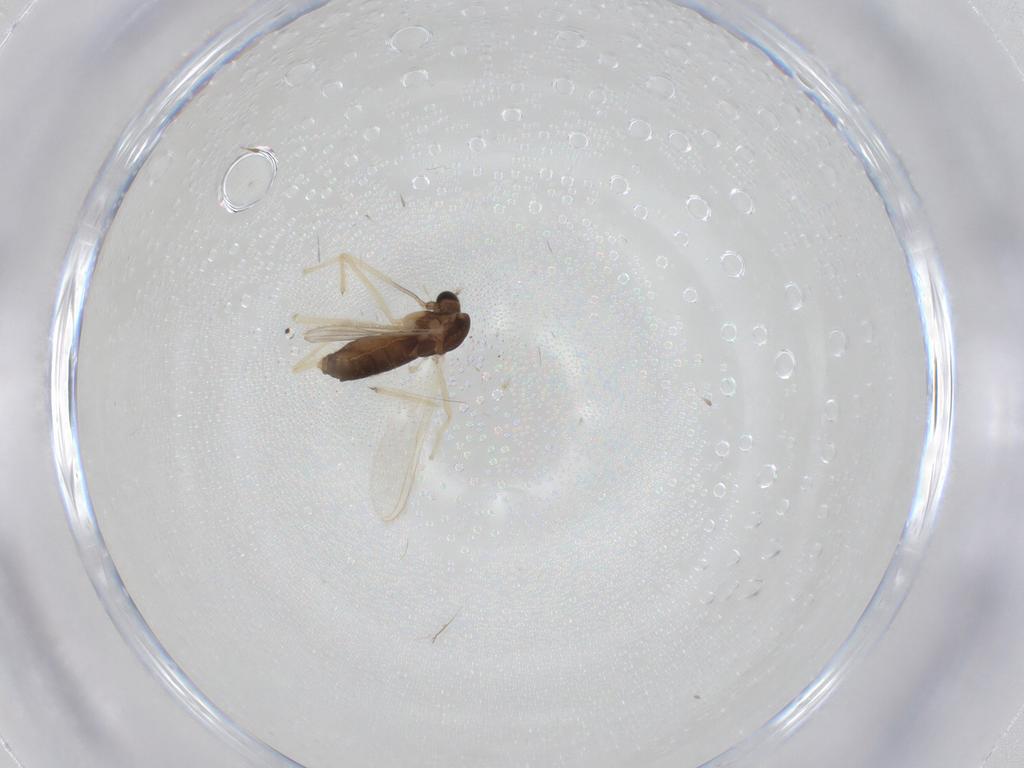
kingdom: Animalia
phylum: Arthropoda
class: Insecta
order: Diptera
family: Chironomidae
